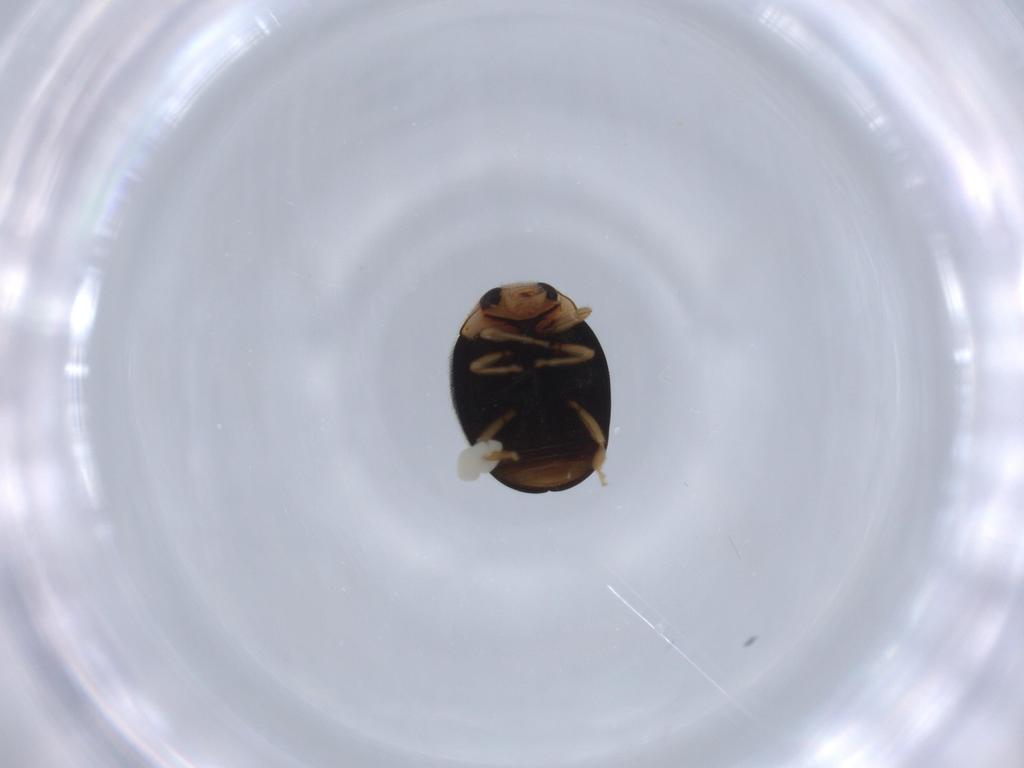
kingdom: Animalia
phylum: Arthropoda
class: Insecta
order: Coleoptera
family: Coccinellidae
